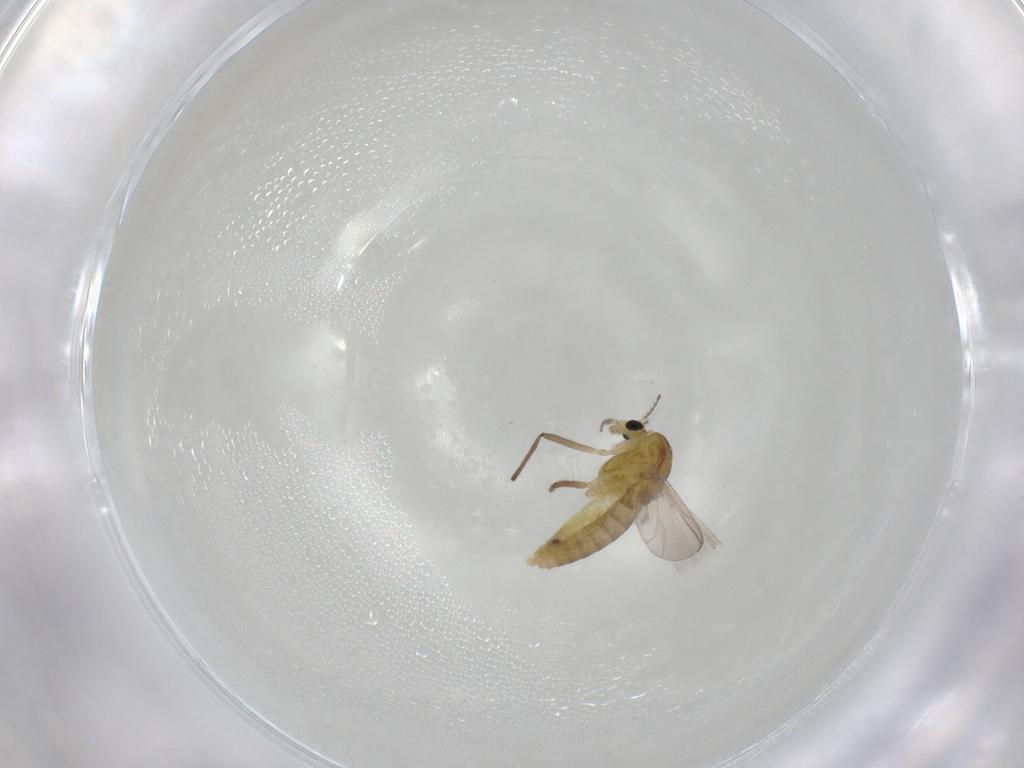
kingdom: Animalia
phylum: Arthropoda
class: Insecta
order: Diptera
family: Chironomidae
